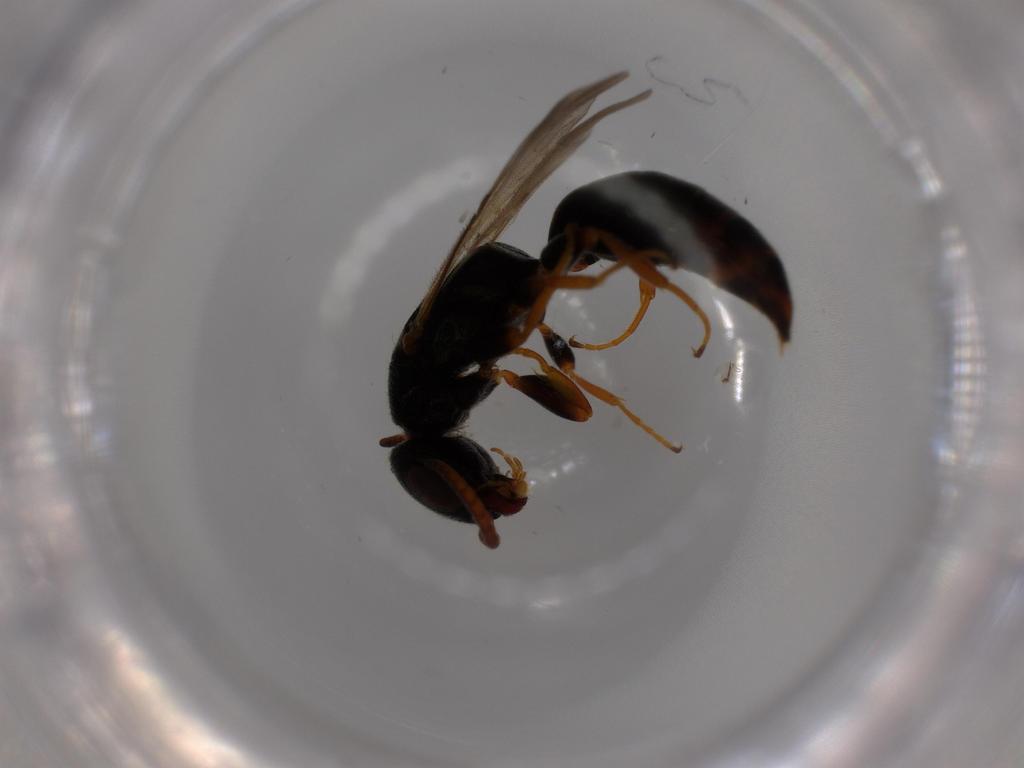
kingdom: Animalia
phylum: Arthropoda
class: Insecta
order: Hymenoptera
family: Bethylidae
